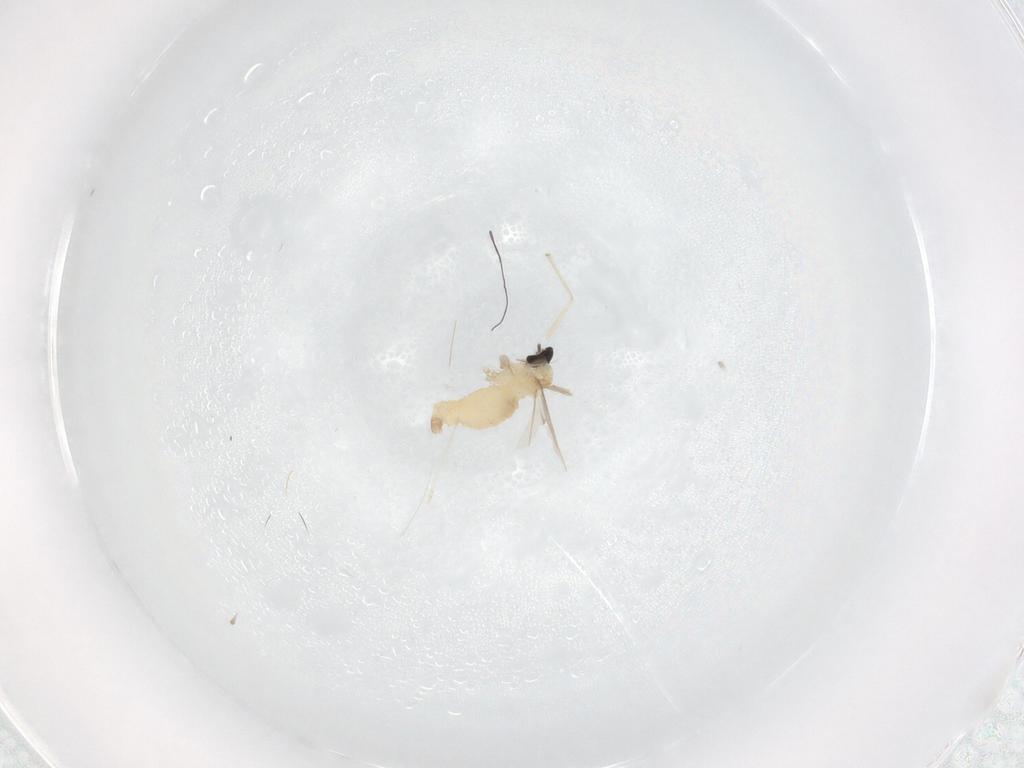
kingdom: Animalia
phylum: Arthropoda
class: Insecta
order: Diptera
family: Cecidomyiidae
